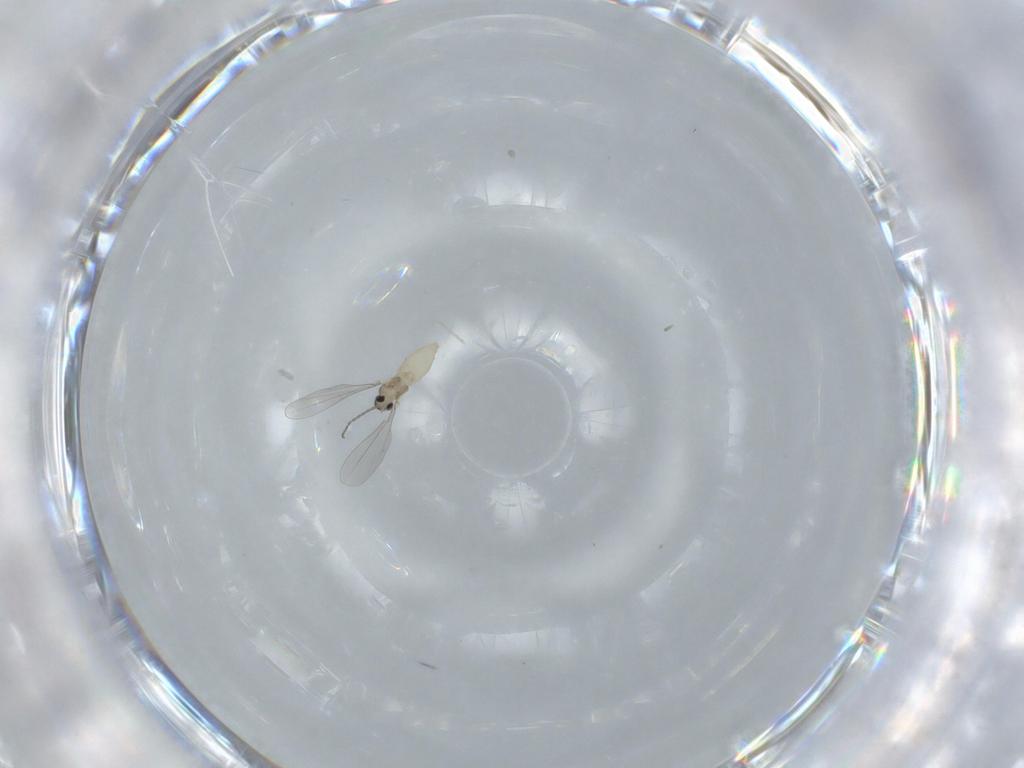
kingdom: Animalia
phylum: Arthropoda
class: Insecta
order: Diptera
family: Cecidomyiidae
